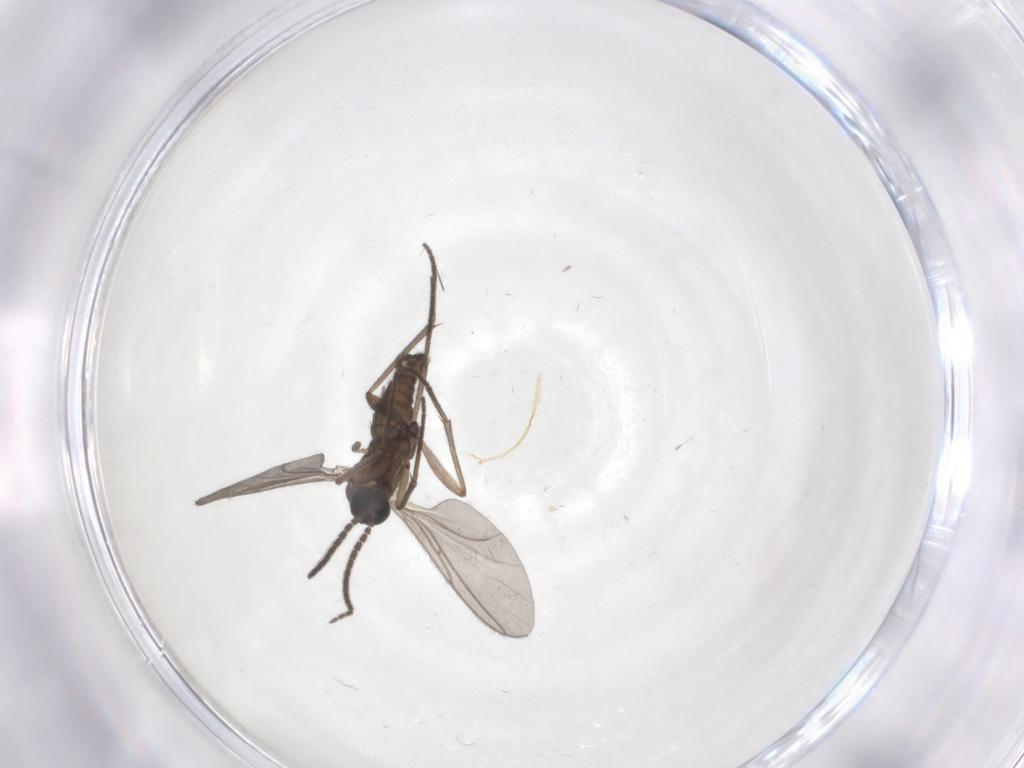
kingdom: Animalia
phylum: Arthropoda
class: Insecta
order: Diptera
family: Sciaridae
